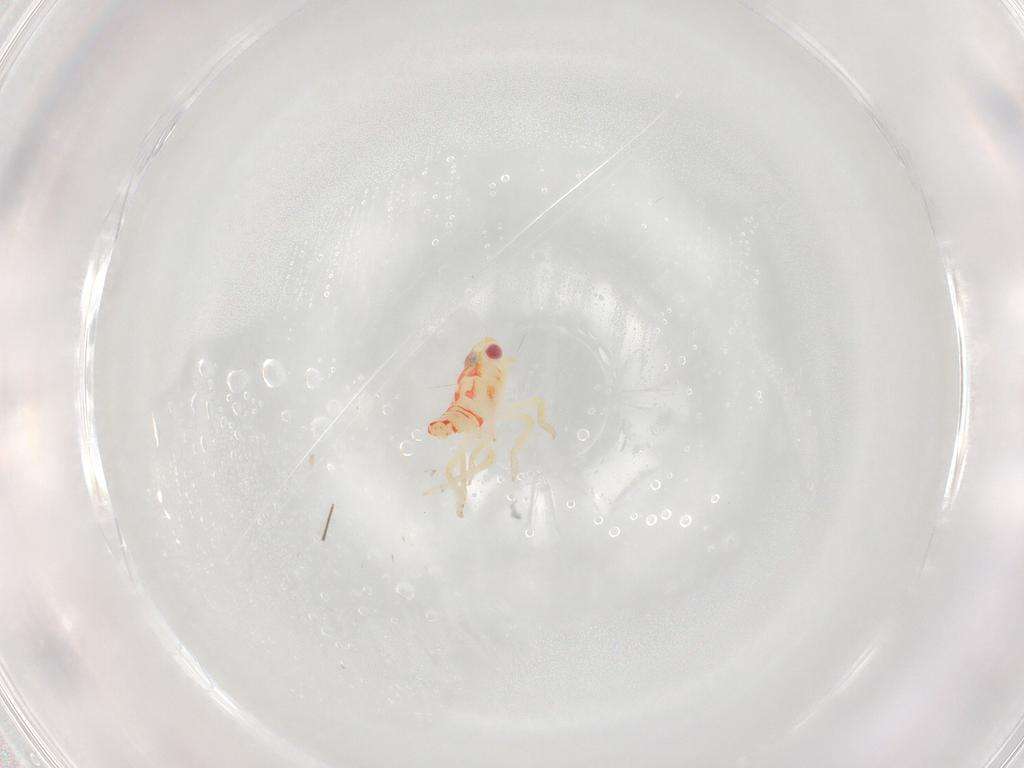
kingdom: Animalia
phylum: Arthropoda
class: Insecta
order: Hemiptera
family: Tropiduchidae
